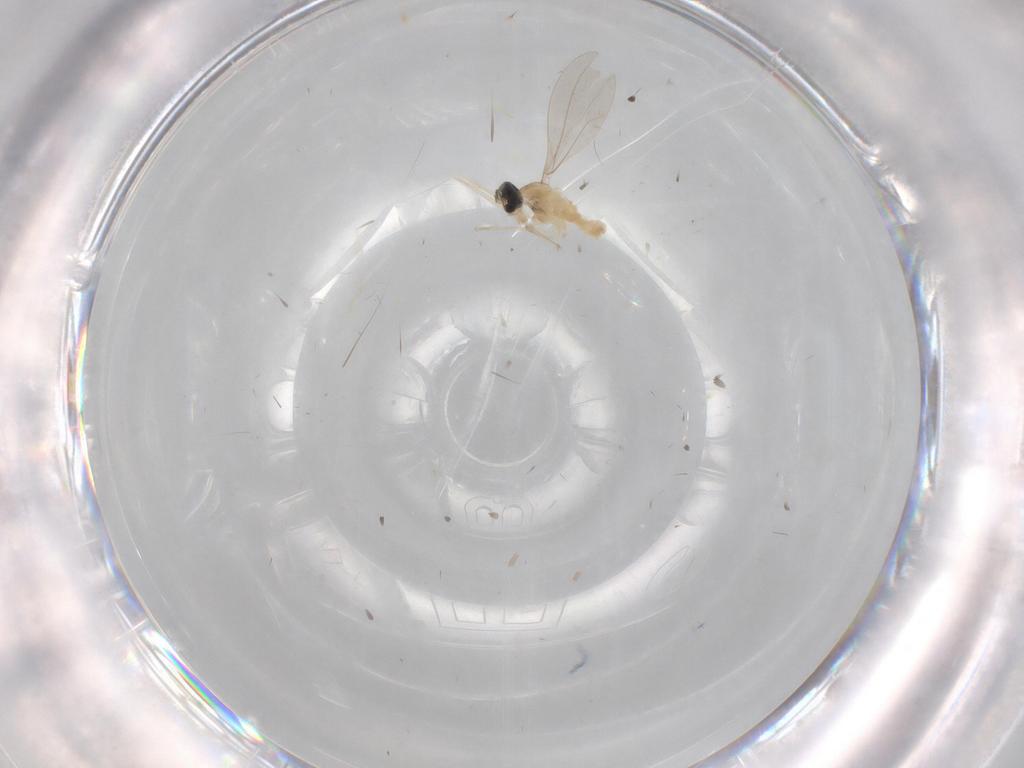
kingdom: Animalia
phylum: Arthropoda
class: Insecta
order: Diptera
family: Cecidomyiidae
